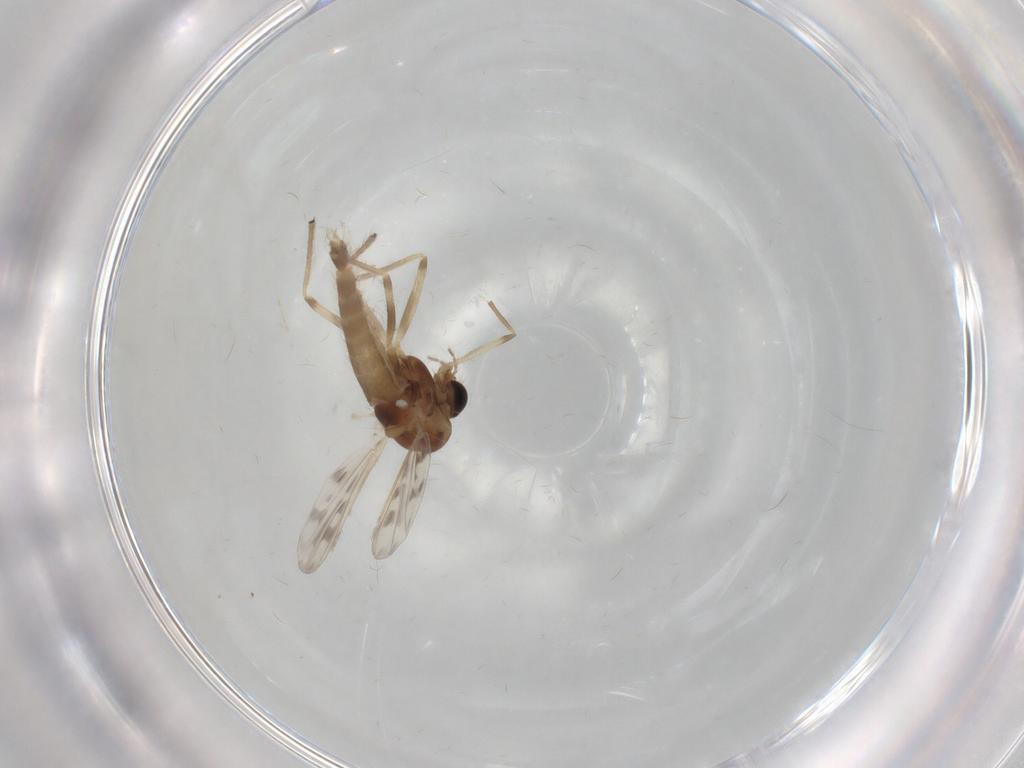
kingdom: Animalia
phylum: Arthropoda
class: Insecta
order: Diptera
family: Chironomidae
